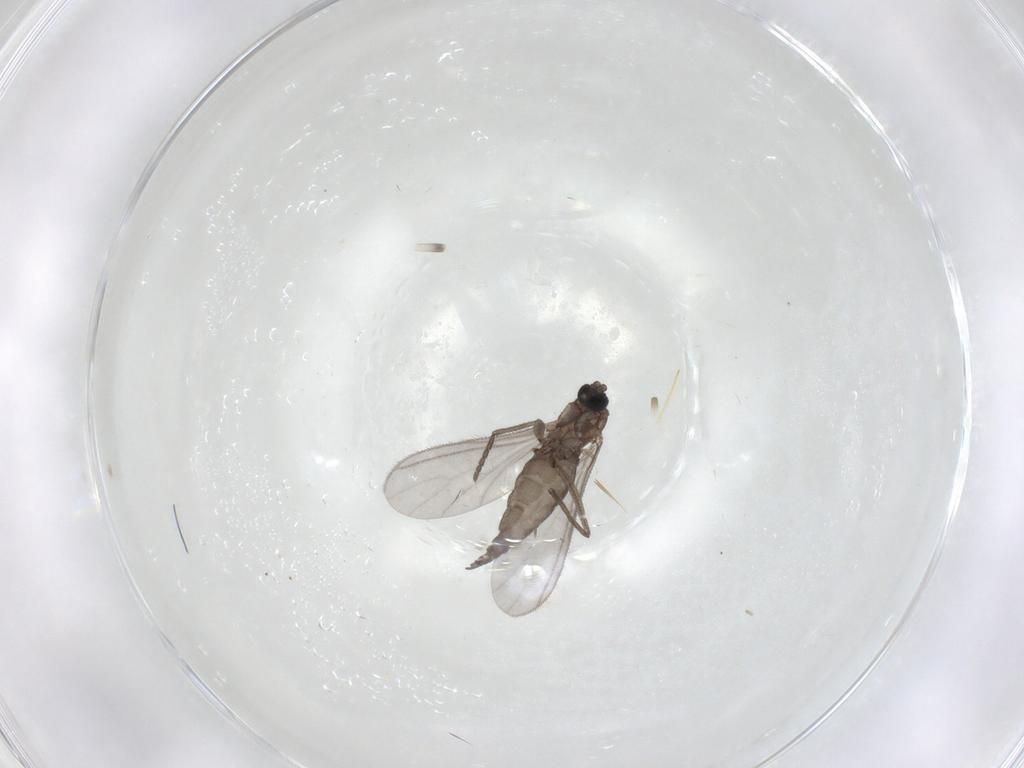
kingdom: Animalia
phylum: Arthropoda
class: Insecta
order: Diptera
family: Sciaridae
